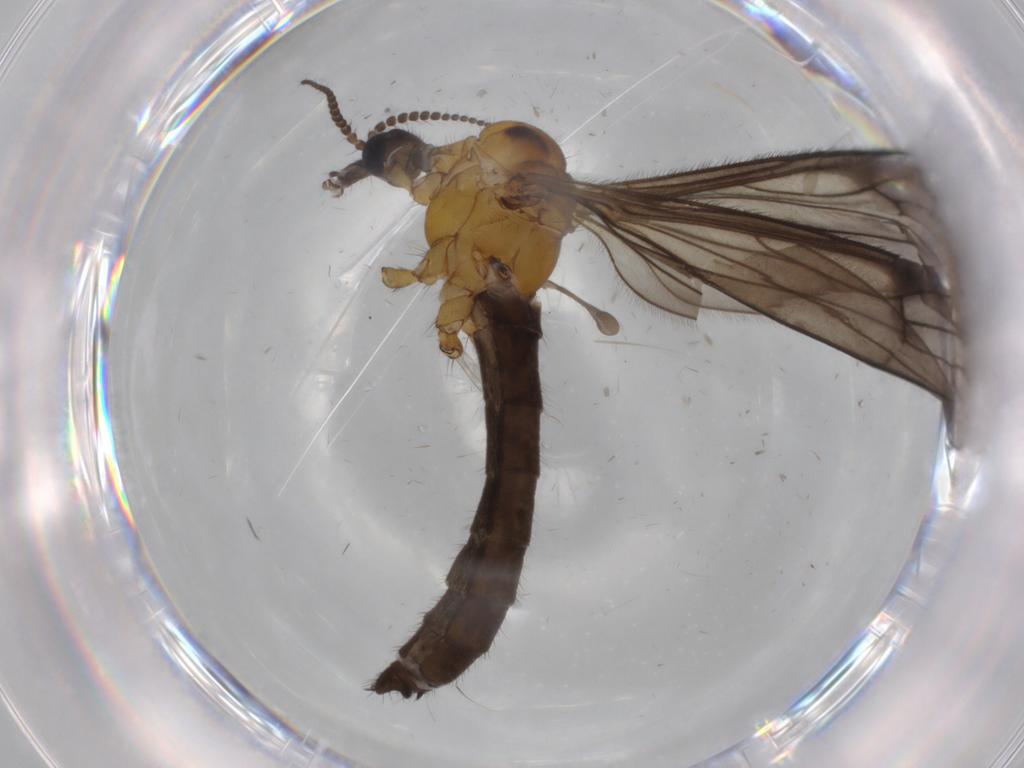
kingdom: Animalia
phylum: Arthropoda
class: Insecta
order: Diptera
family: Limoniidae
